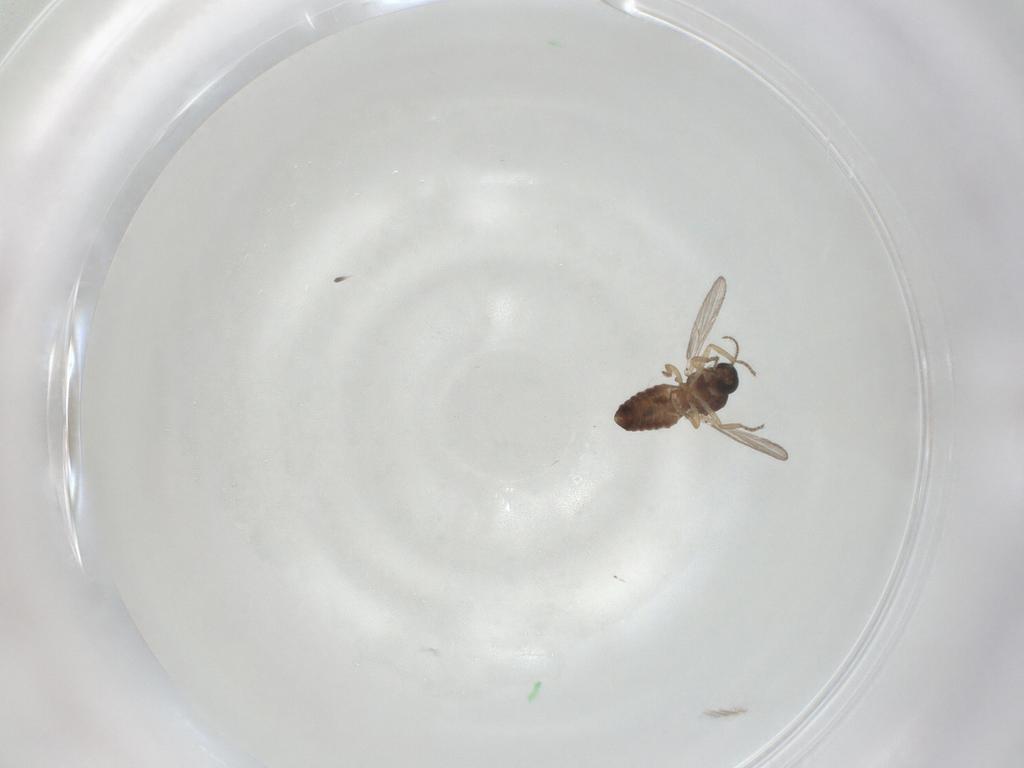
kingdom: Animalia
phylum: Arthropoda
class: Insecta
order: Diptera
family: Ceratopogonidae
